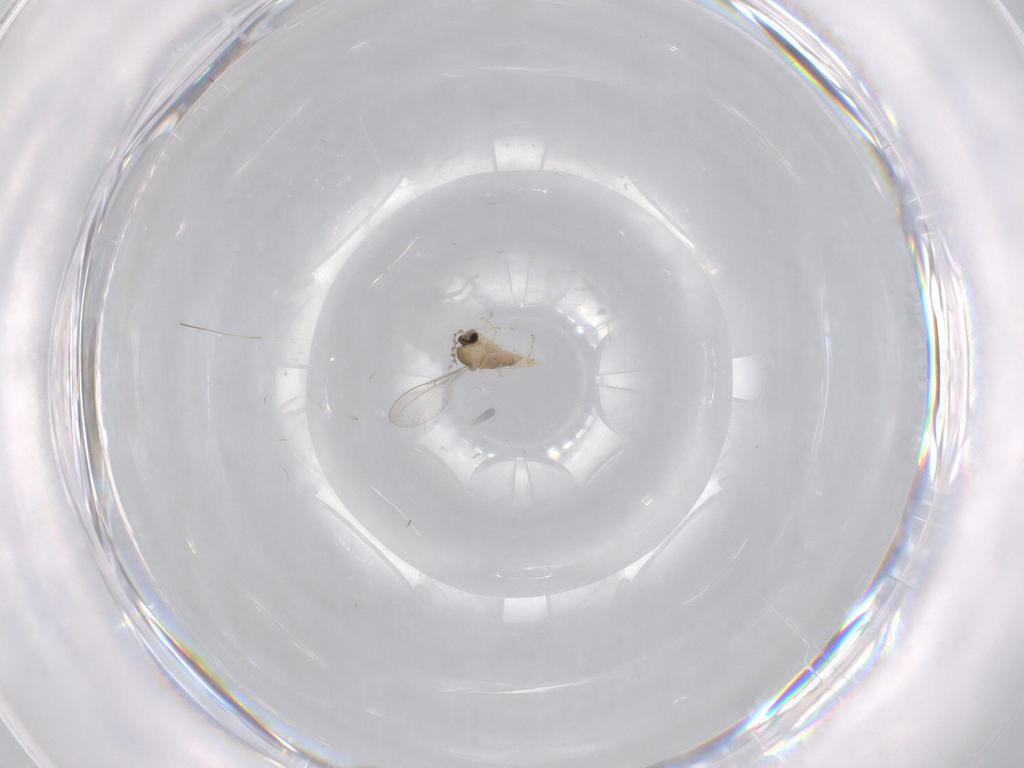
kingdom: Animalia
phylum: Arthropoda
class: Insecta
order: Diptera
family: Cecidomyiidae
